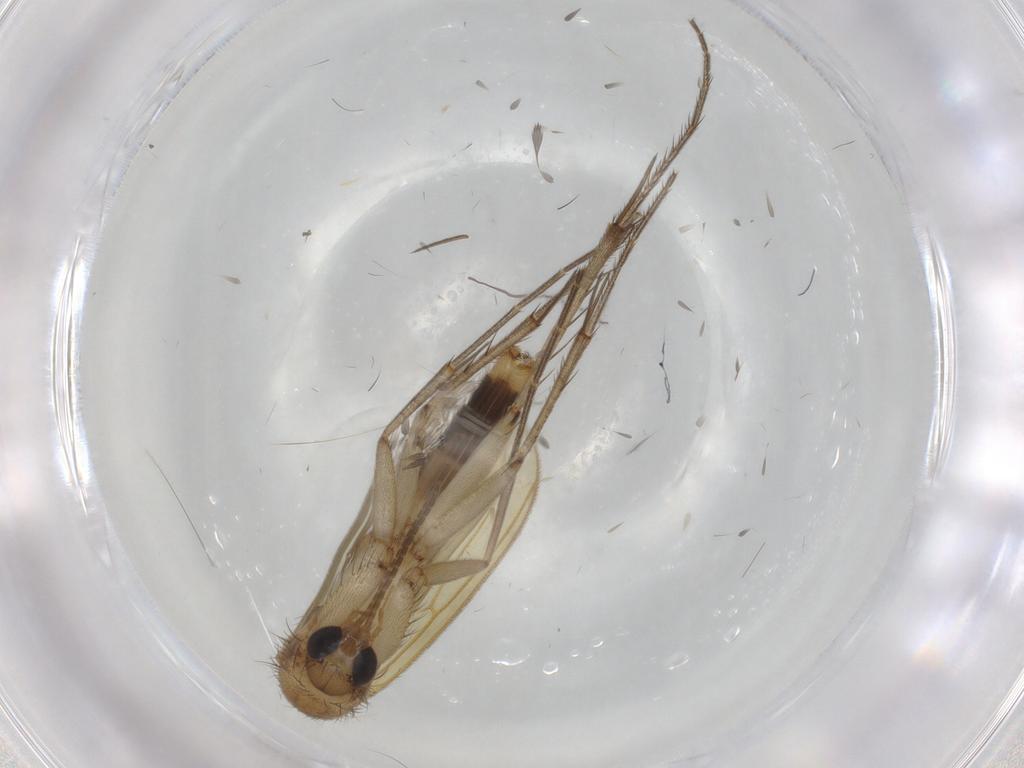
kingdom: Animalia
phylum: Arthropoda
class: Insecta
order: Diptera
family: Mycetophilidae
